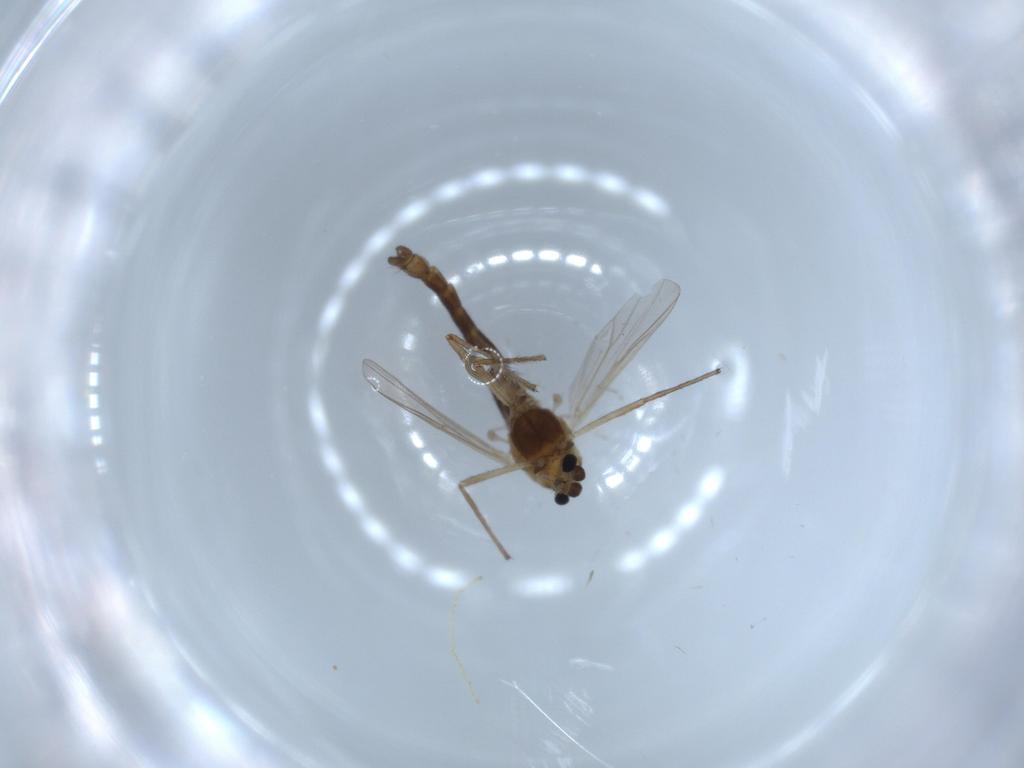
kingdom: Animalia
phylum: Arthropoda
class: Insecta
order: Diptera
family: Chironomidae
